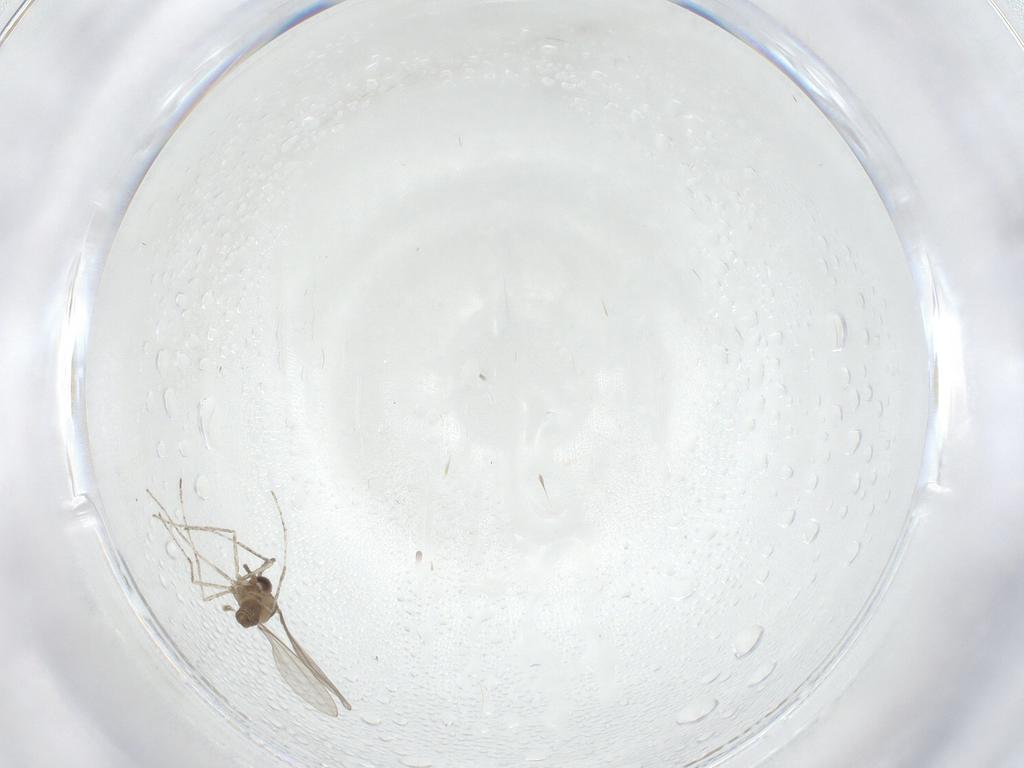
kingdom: Animalia
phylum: Arthropoda
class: Insecta
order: Diptera
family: Cecidomyiidae
